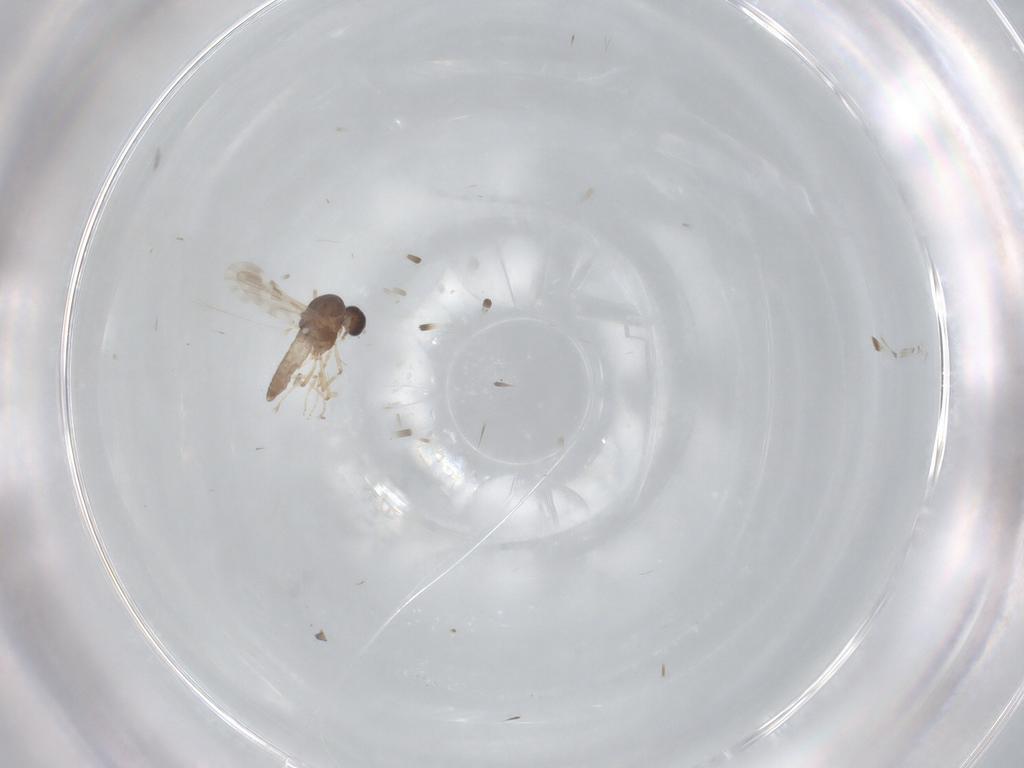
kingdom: Animalia
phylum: Arthropoda
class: Insecta
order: Diptera
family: Ceratopogonidae
